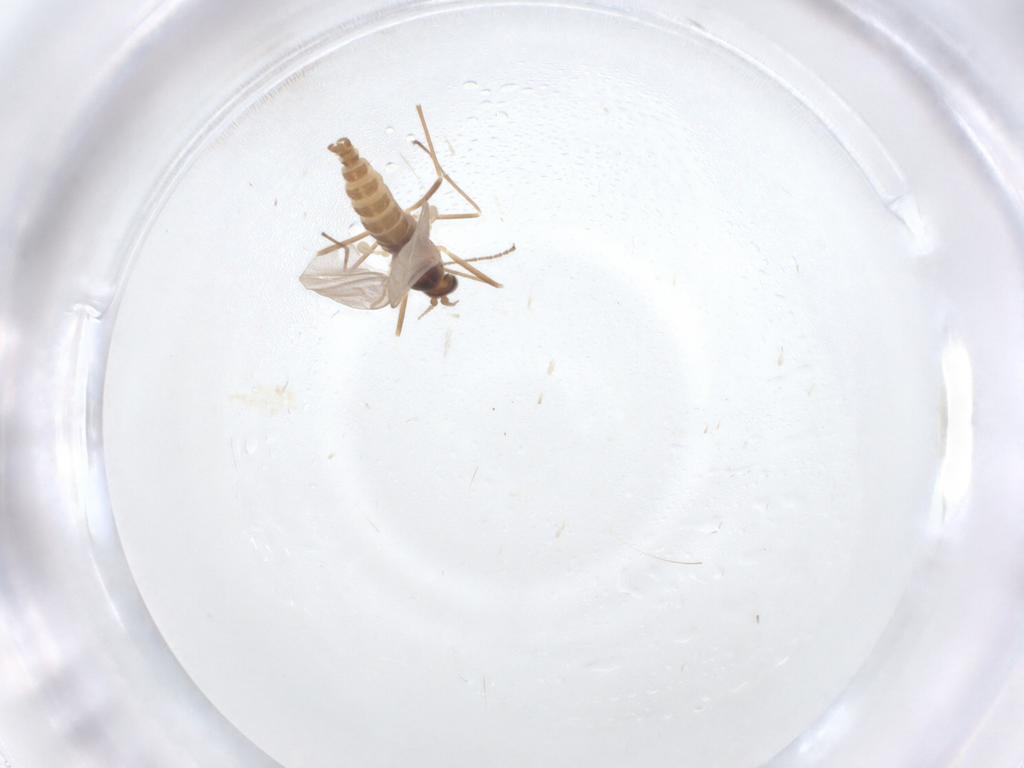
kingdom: Animalia
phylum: Arthropoda
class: Insecta
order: Diptera
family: Cecidomyiidae
